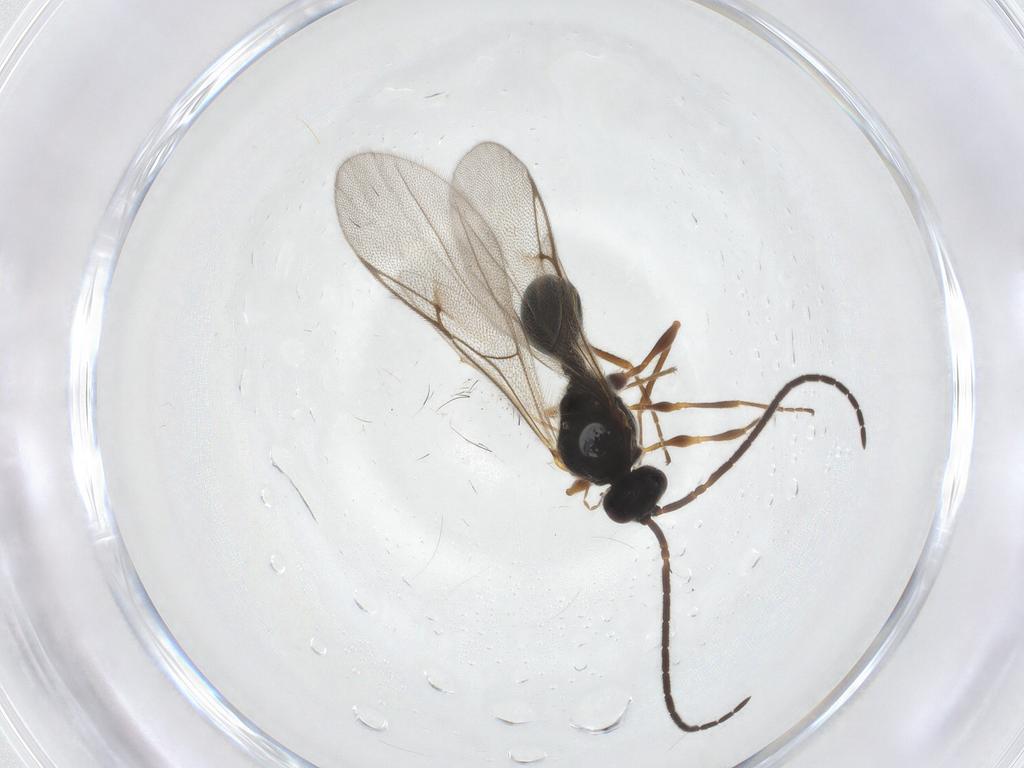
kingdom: Animalia
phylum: Arthropoda
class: Insecta
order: Hymenoptera
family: Diapriidae
